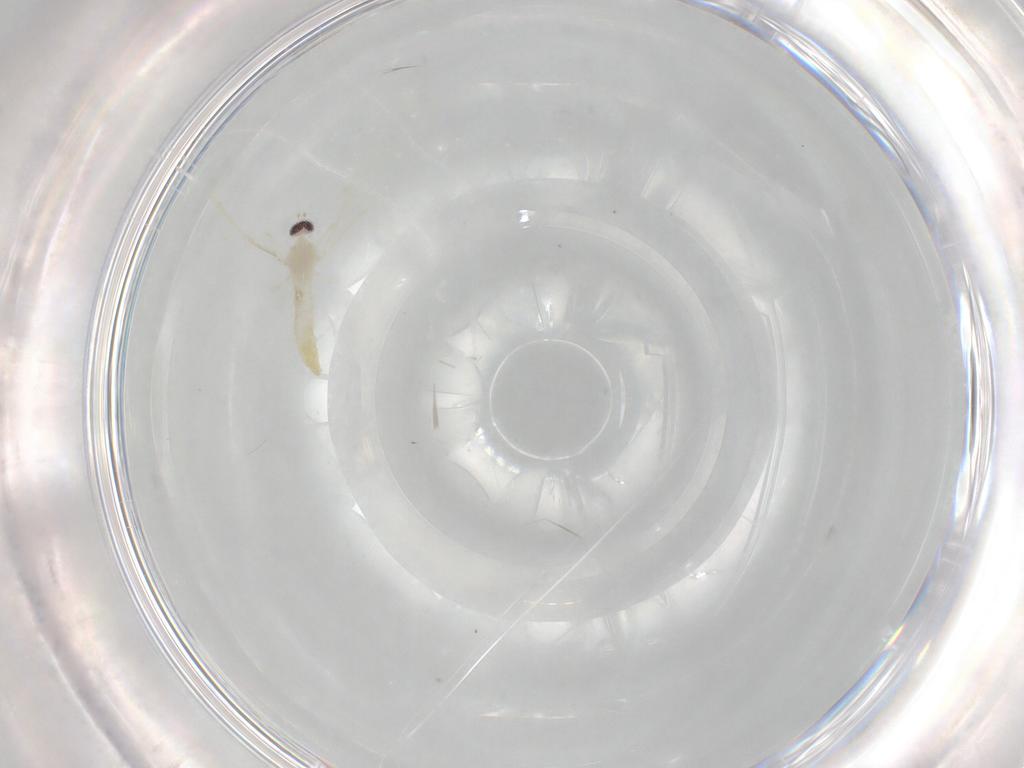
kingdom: Animalia
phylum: Arthropoda
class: Insecta
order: Diptera
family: Cecidomyiidae
